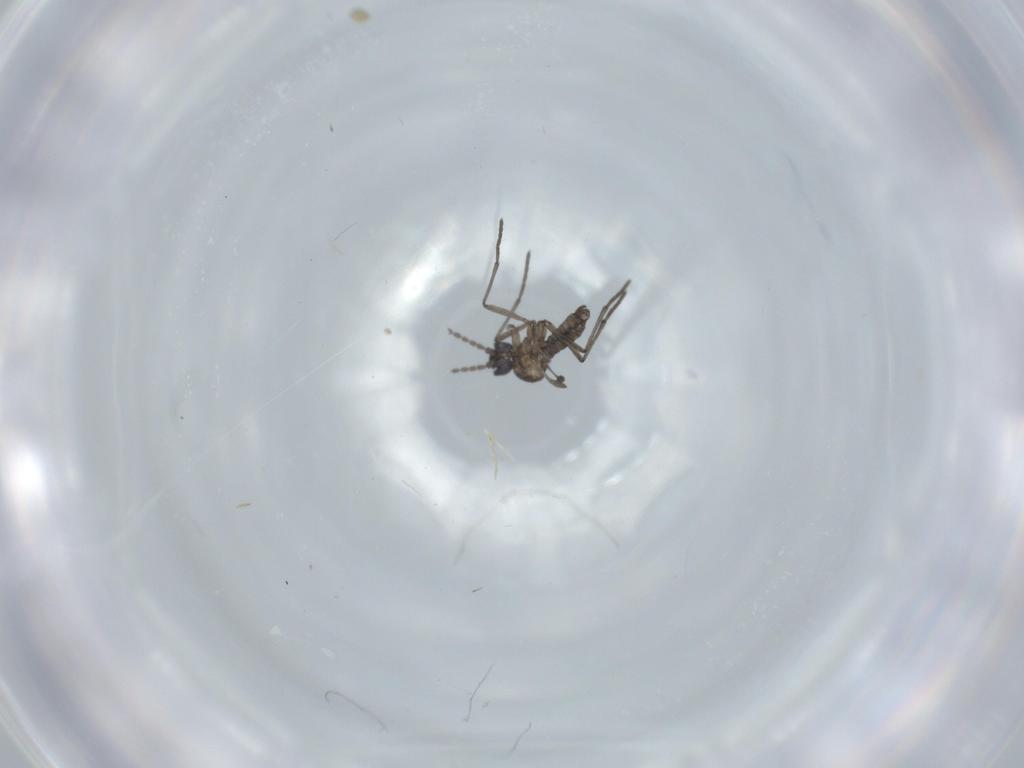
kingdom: Animalia
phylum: Arthropoda
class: Insecta
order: Diptera
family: Sciaridae
